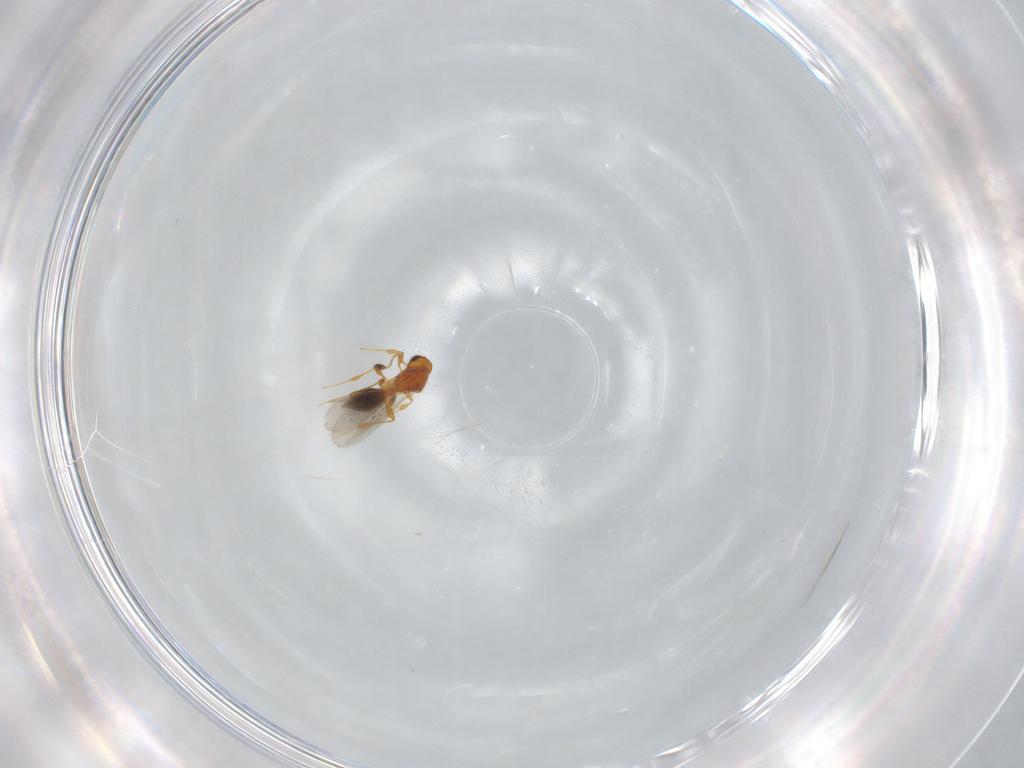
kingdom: Animalia
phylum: Arthropoda
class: Insecta
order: Hymenoptera
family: Platygastridae
